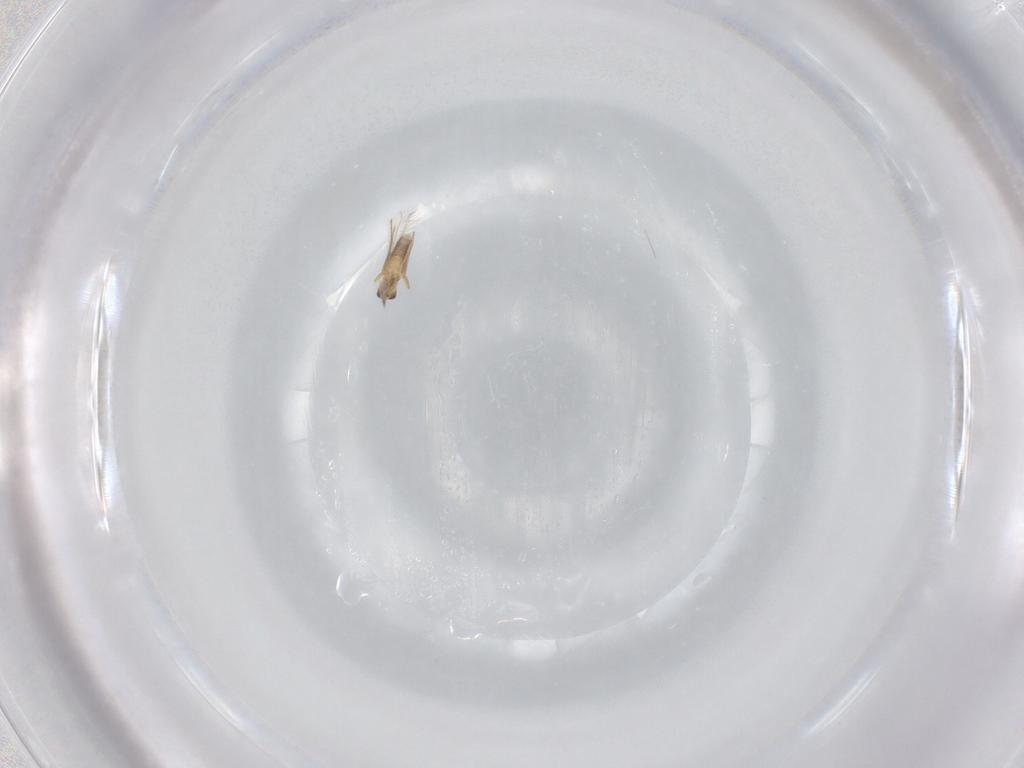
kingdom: Animalia
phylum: Arthropoda
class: Insecta
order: Hymenoptera
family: Mymaridae
